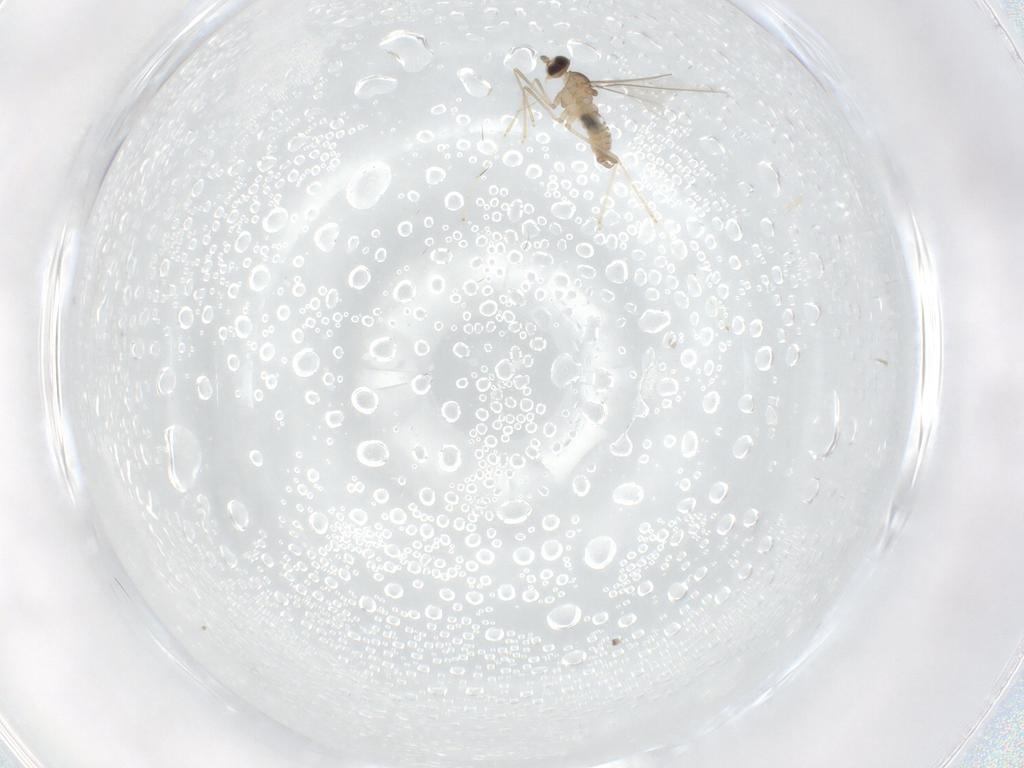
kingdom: Animalia
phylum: Arthropoda
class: Insecta
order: Diptera
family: Cecidomyiidae
